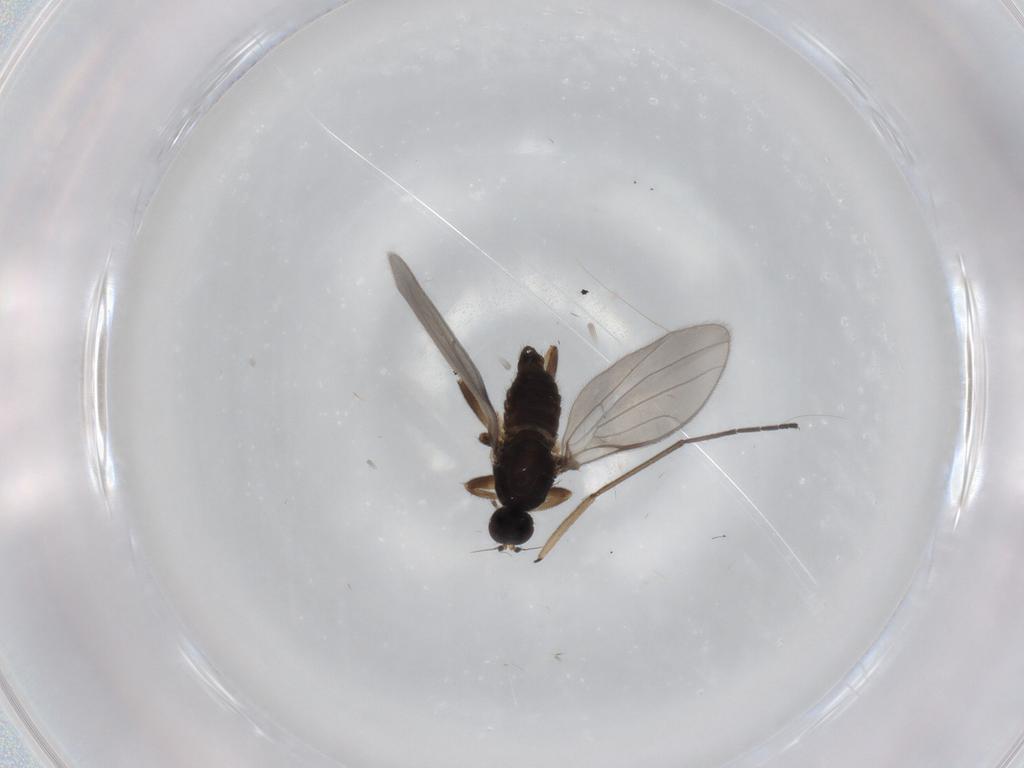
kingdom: Animalia
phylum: Arthropoda
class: Insecta
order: Diptera
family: Hybotidae
